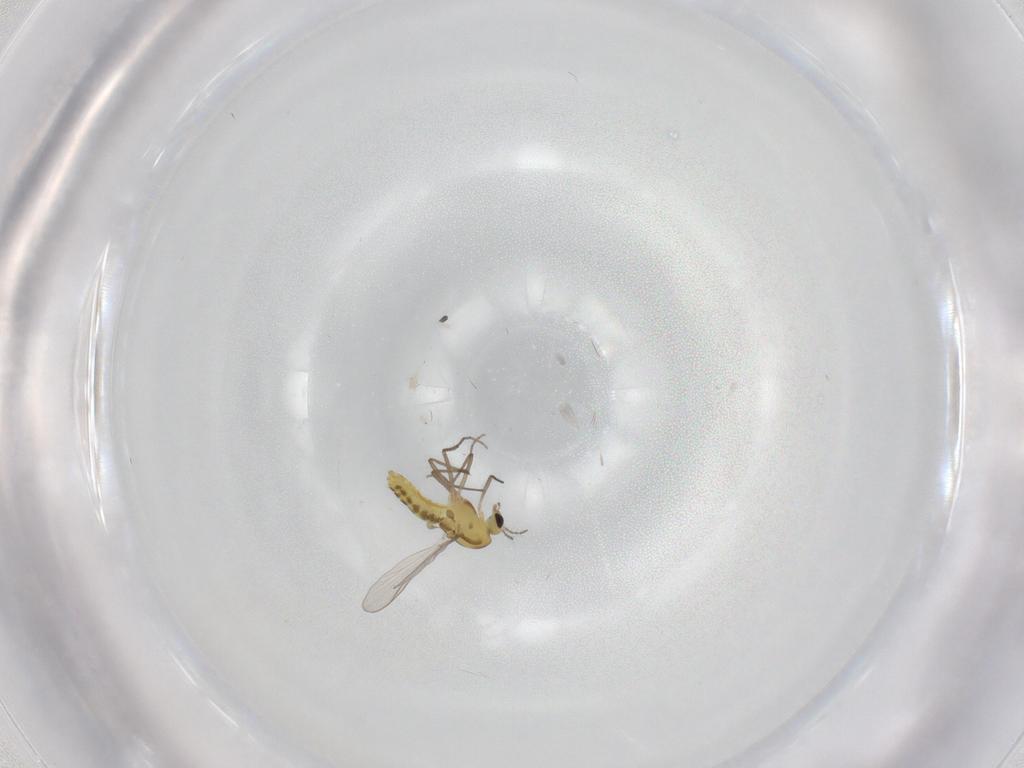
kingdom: Animalia
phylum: Arthropoda
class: Insecta
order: Diptera
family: Chironomidae
